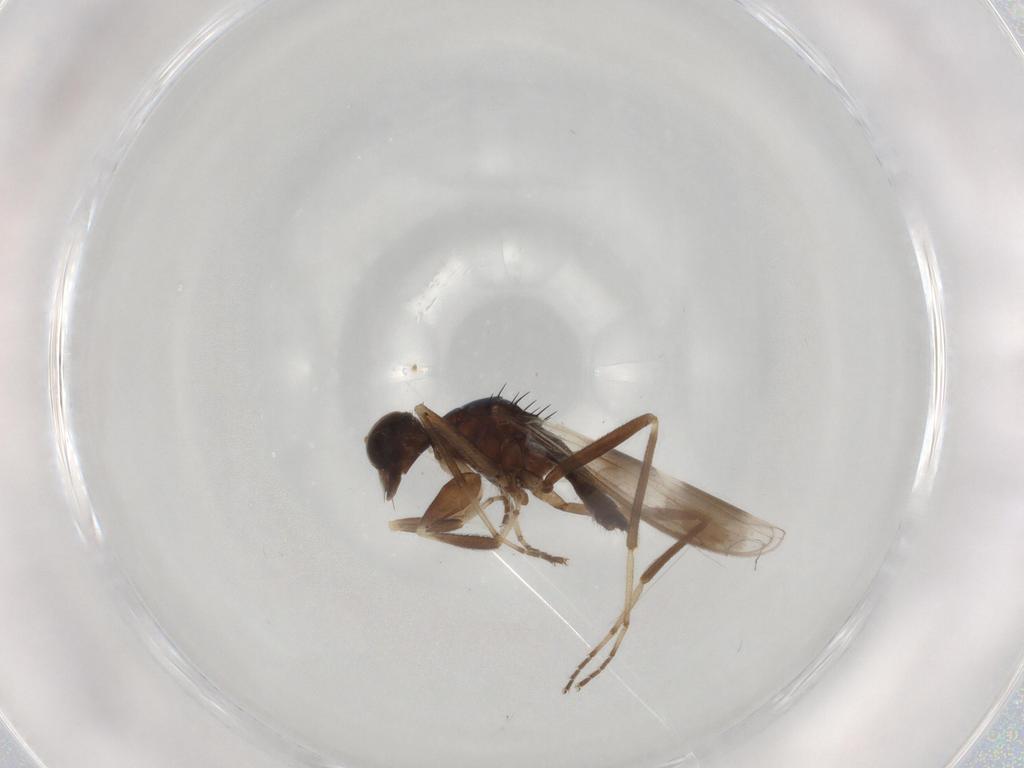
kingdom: Animalia
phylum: Arthropoda
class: Insecta
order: Diptera
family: Hybotidae
